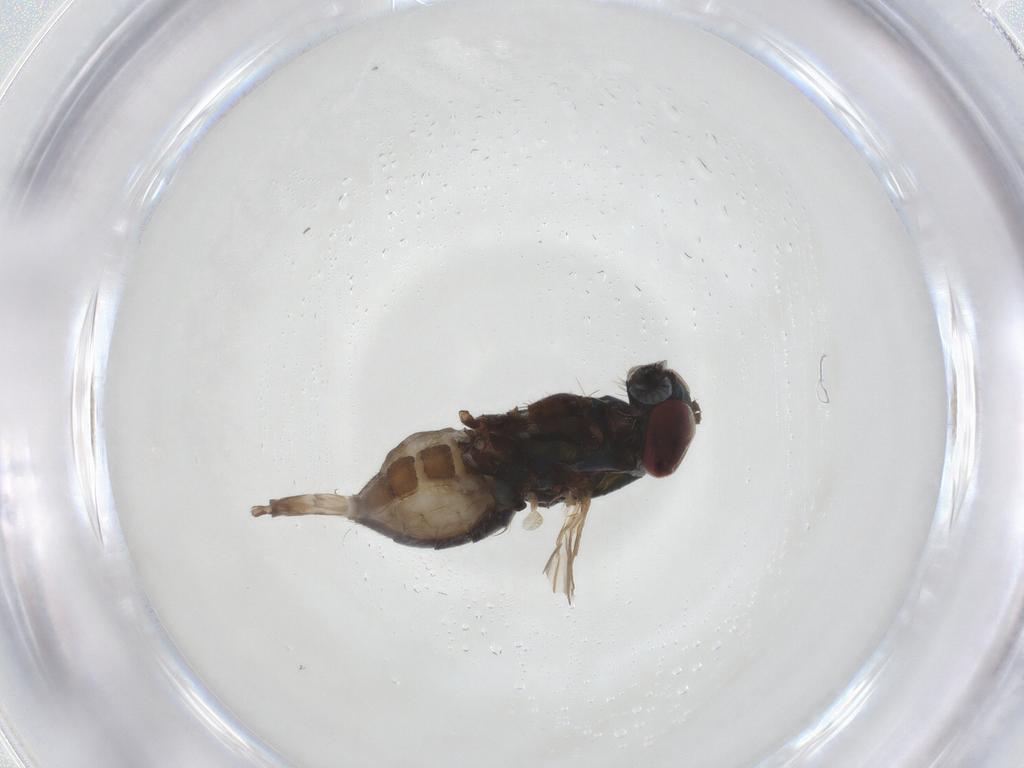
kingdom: Animalia
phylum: Arthropoda
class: Insecta
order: Diptera
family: Dolichopodidae
